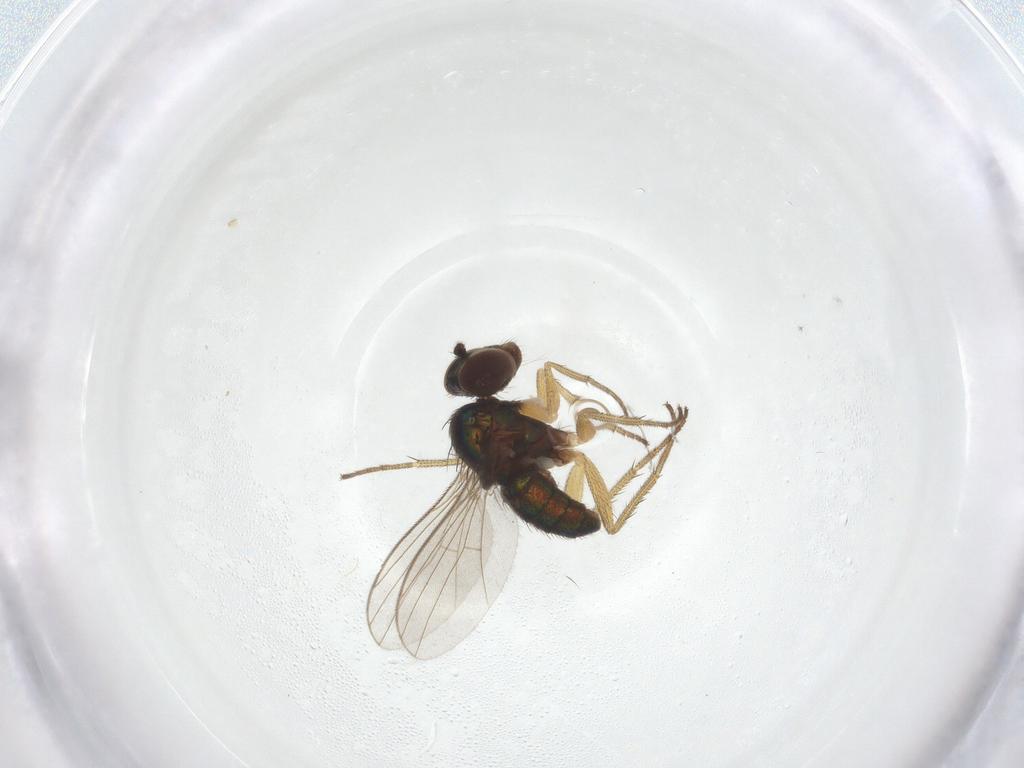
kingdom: Animalia
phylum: Arthropoda
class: Insecta
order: Diptera
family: Dolichopodidae
